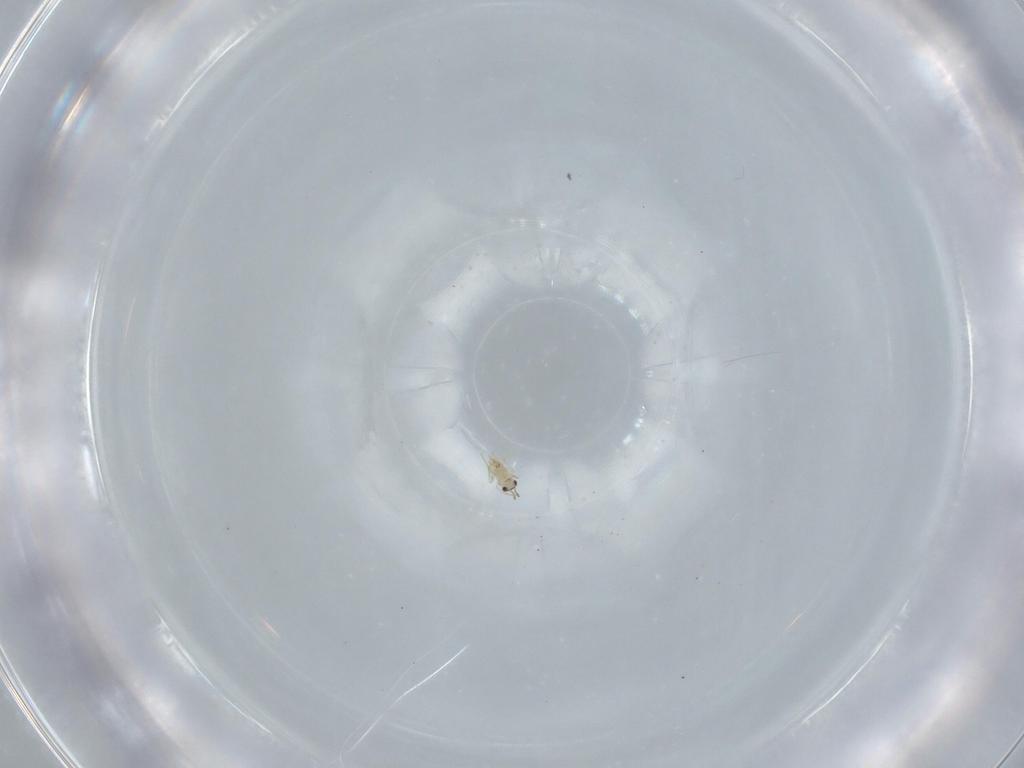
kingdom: Animalia
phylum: Arthropoda
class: Insecta
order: Hymenoptera
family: Mymaridae
